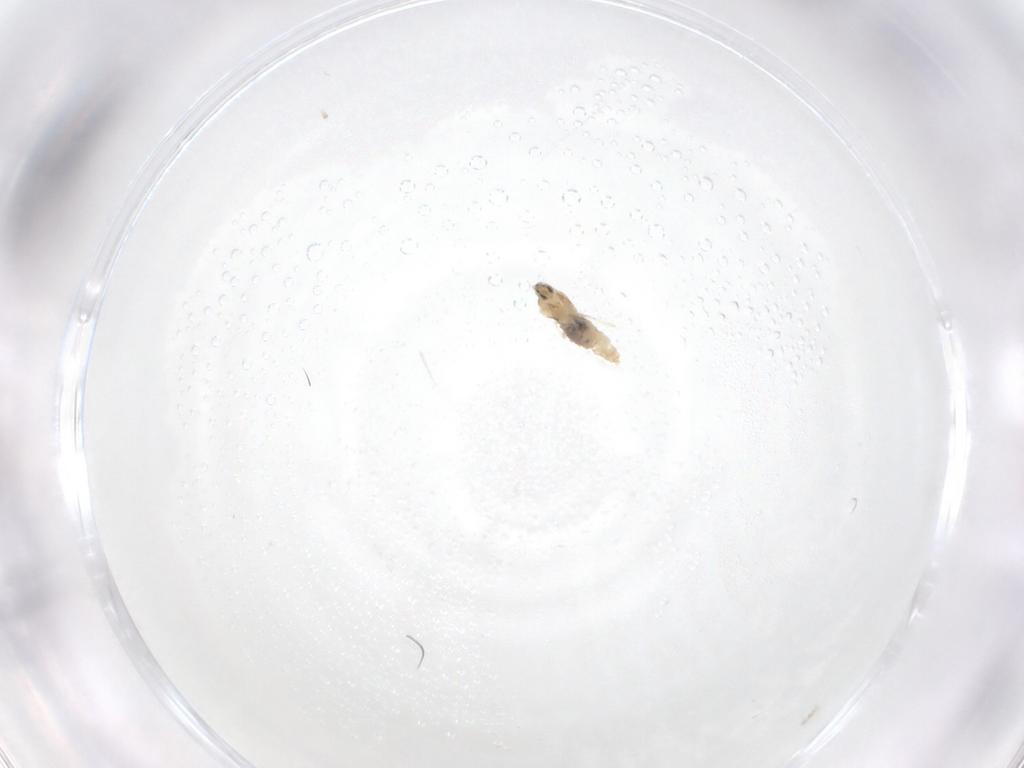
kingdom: Animalia
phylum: Arthropoda
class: Insecta
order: Diptera
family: Cecidomyiidae
